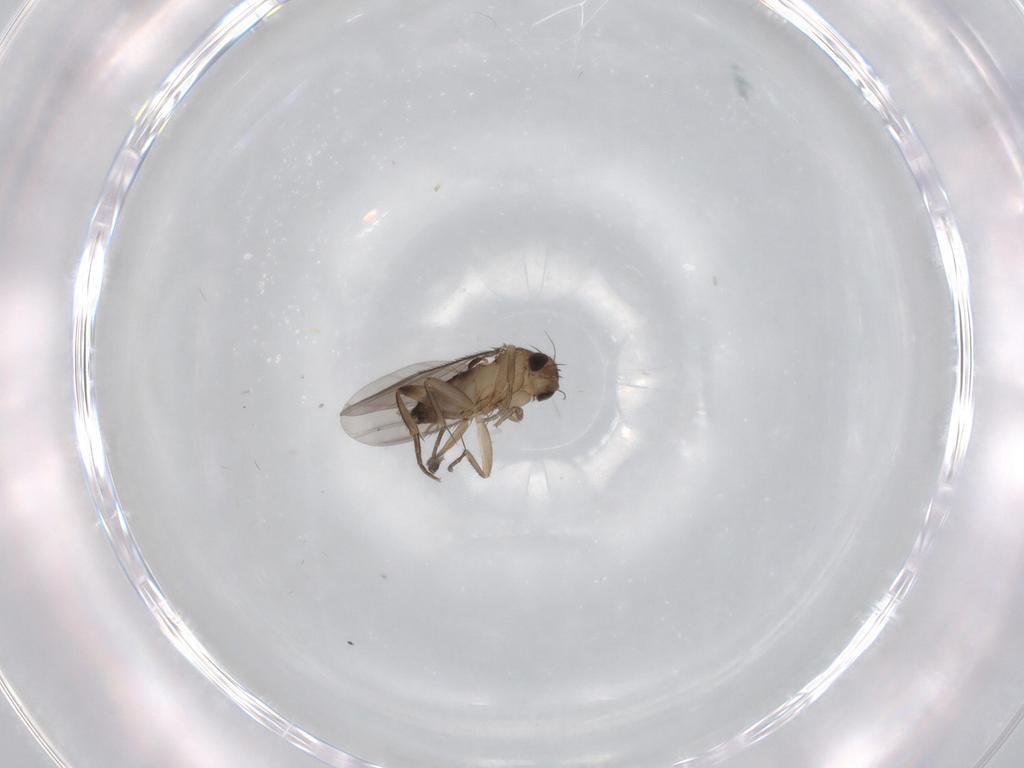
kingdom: Animalia
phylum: Arthropoda
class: Insecta
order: Diptera
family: Phoridae
